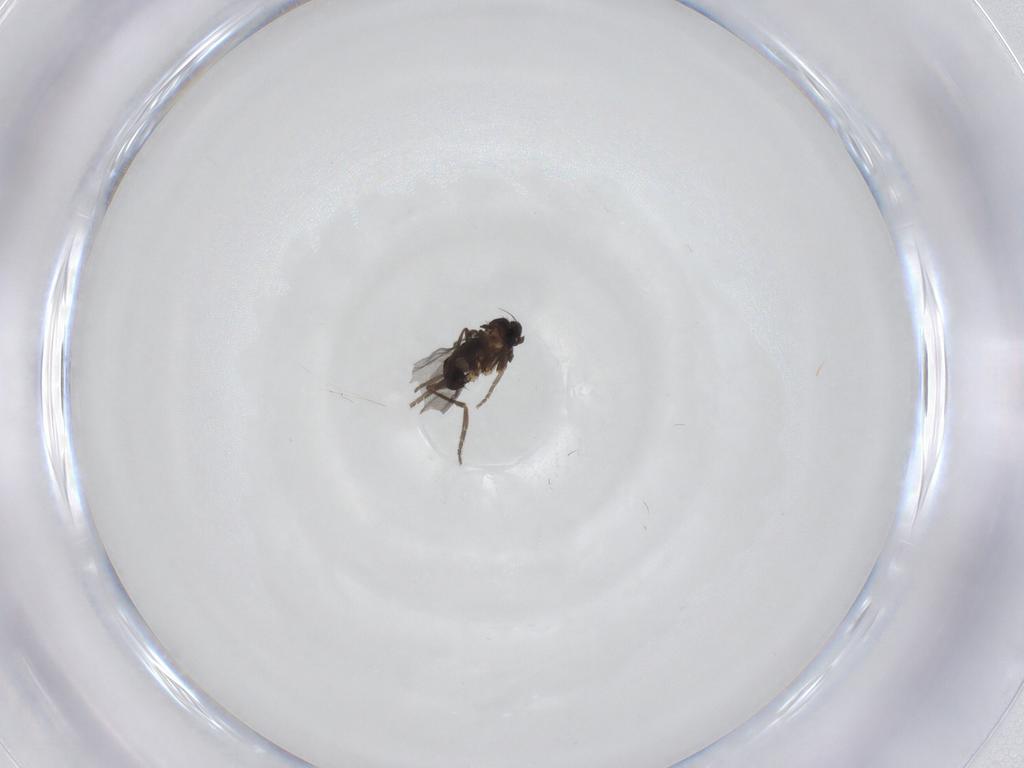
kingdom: Animalia
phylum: Arthropoda
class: Insecta
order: Diptera
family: Phoridae
